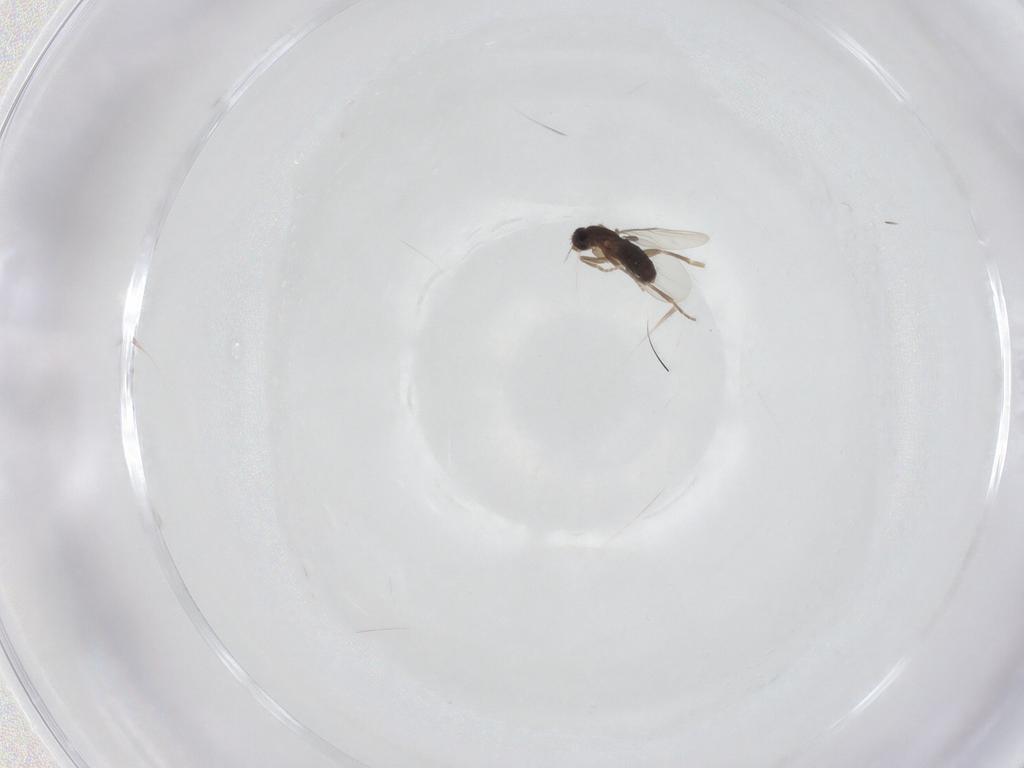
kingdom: Animalia
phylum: Arthropoda
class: Insecta
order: Diptera
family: Phoridae
